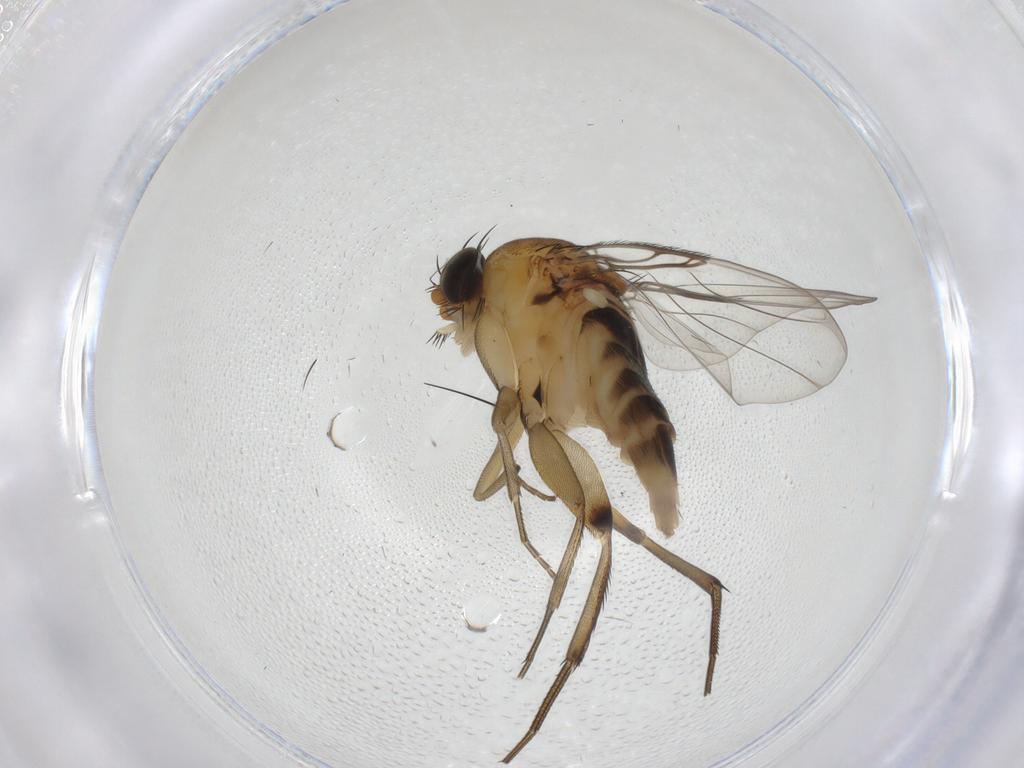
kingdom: Animalia
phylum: Arthropoda
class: Insecta
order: Diptera
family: Phoridae
